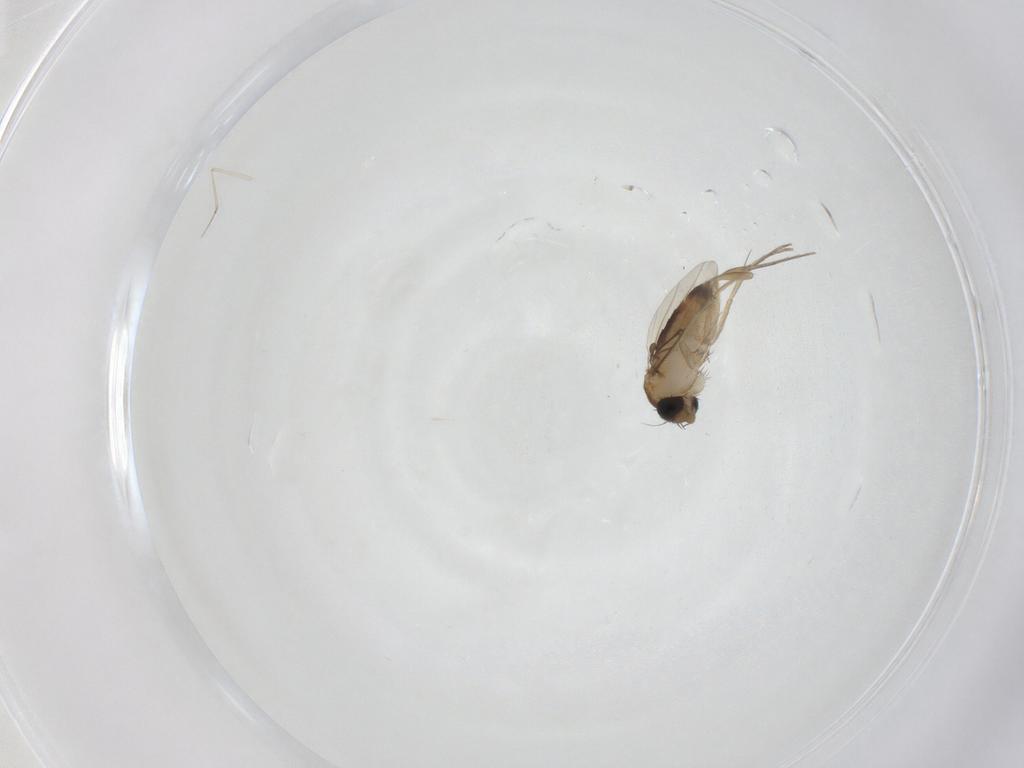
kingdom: Animalia
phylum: Arthropoda
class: Insecta
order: Diptera
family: Phoridae
